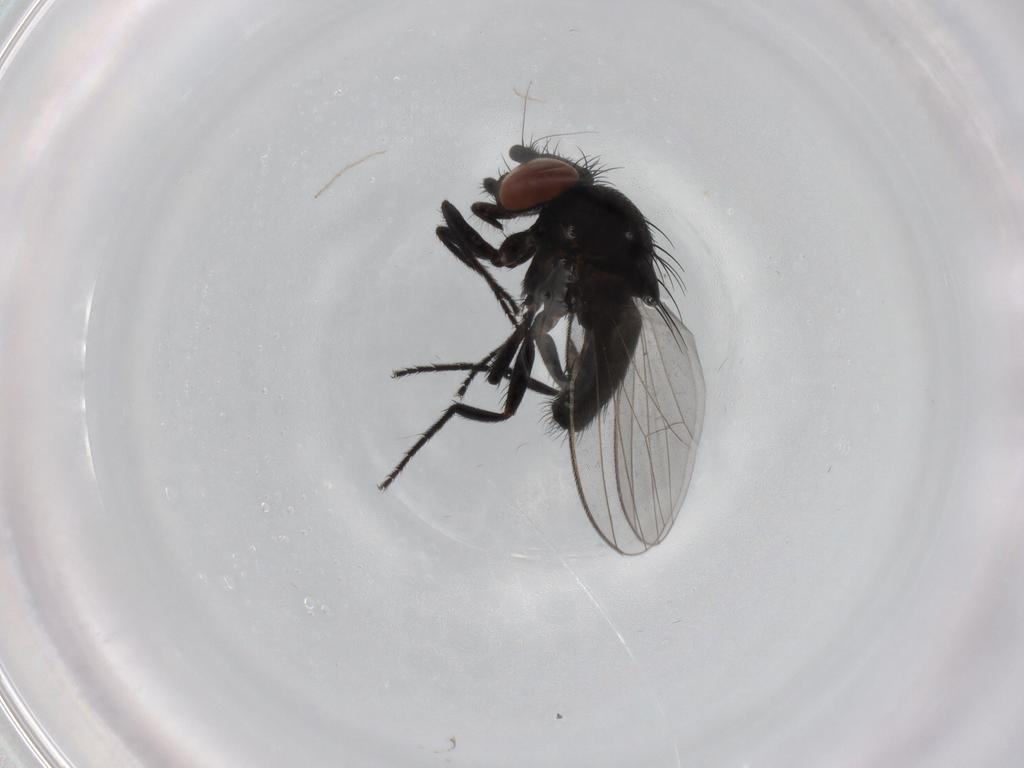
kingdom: Animalia
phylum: Arthropoda
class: Insecta
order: Diptera
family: Milichiidae
